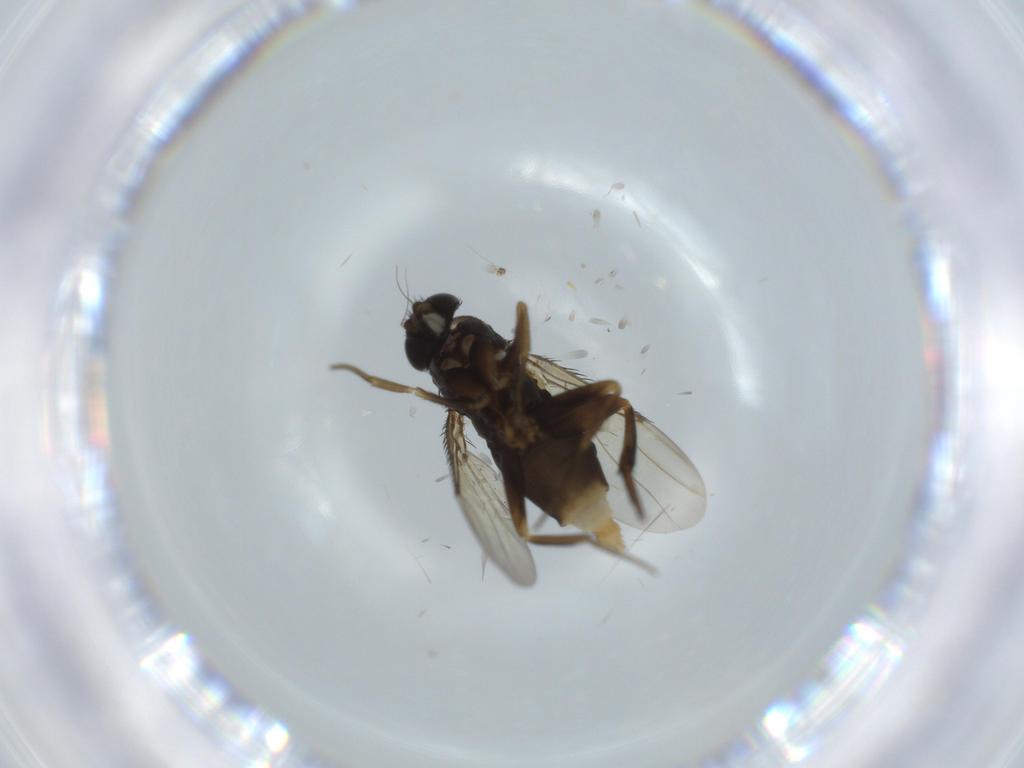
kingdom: Animalia
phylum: Arthropoda
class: Insecta
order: Diptera
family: Phoridae
